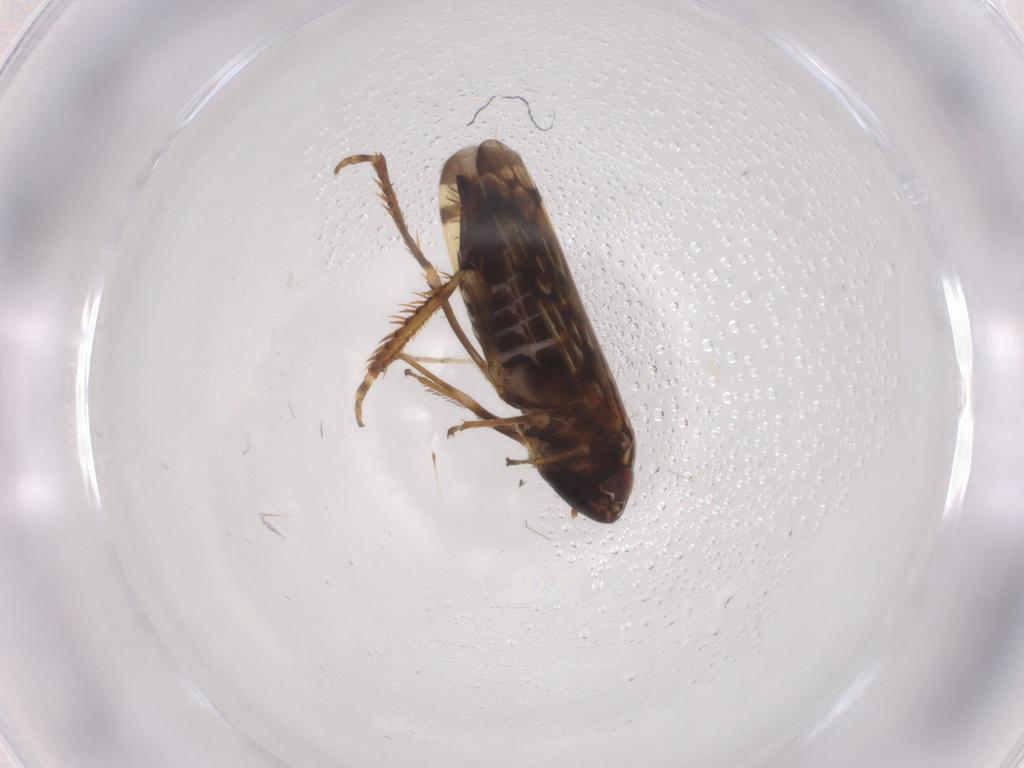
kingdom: Animalia
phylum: Arthropoda
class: Insecta
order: Hemiptera
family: Cicadellidae
